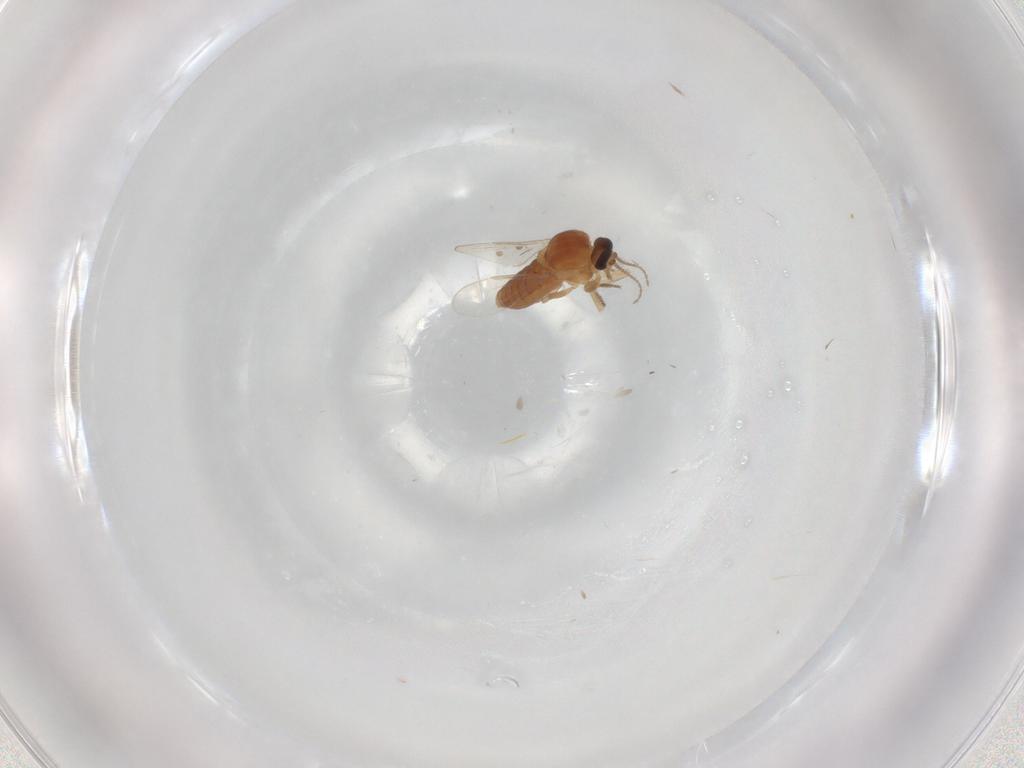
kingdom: Animalia
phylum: Arthropoda
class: Insecta
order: Diptera
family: Ceratopogonidae
